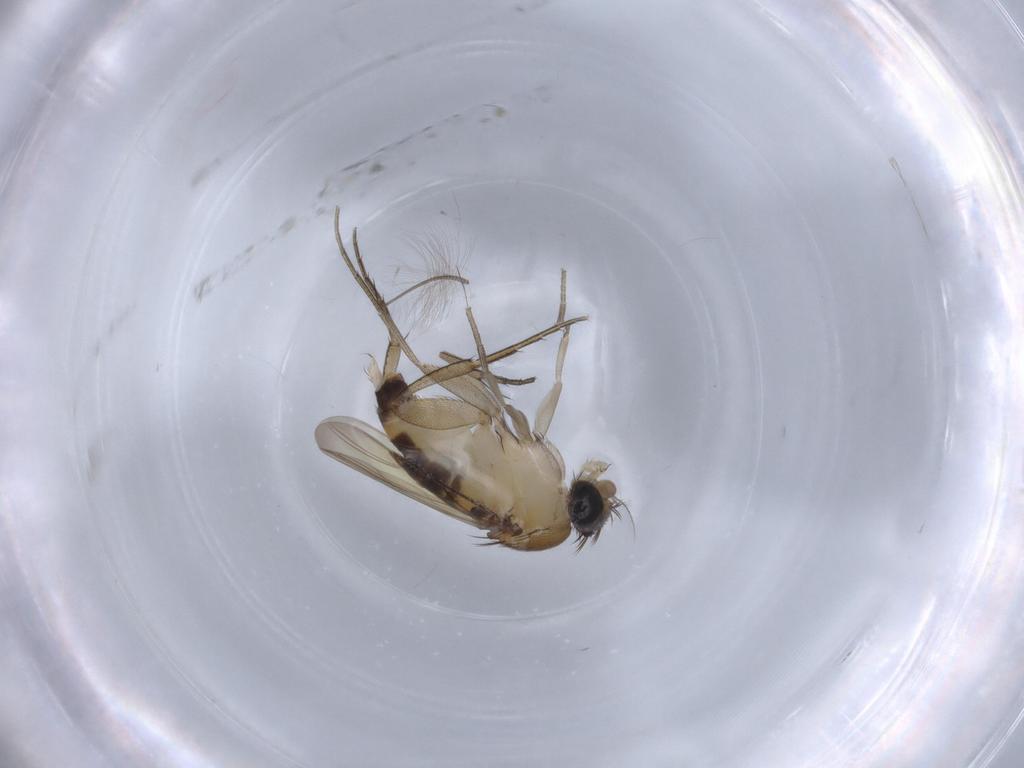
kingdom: Animalia
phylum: Arthropoda
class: Insecta
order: Diptera
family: Chironomidae
